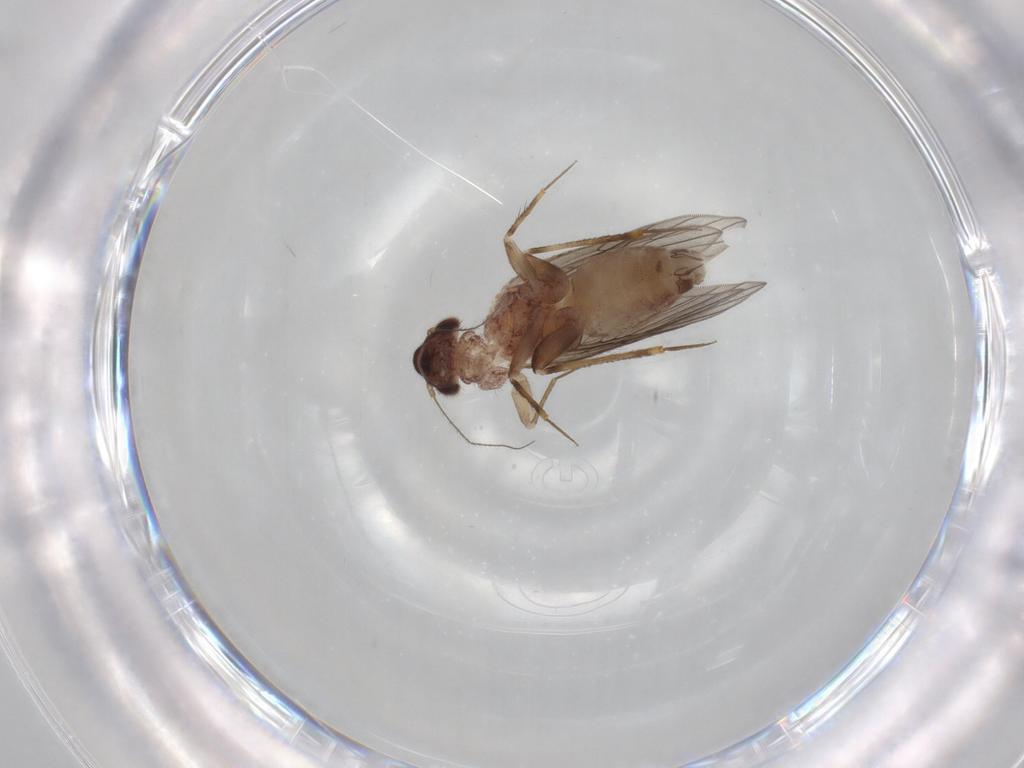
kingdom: Animalia
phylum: Arthropoda
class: Insecta
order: Psocodea
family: Lepidopsocidae
